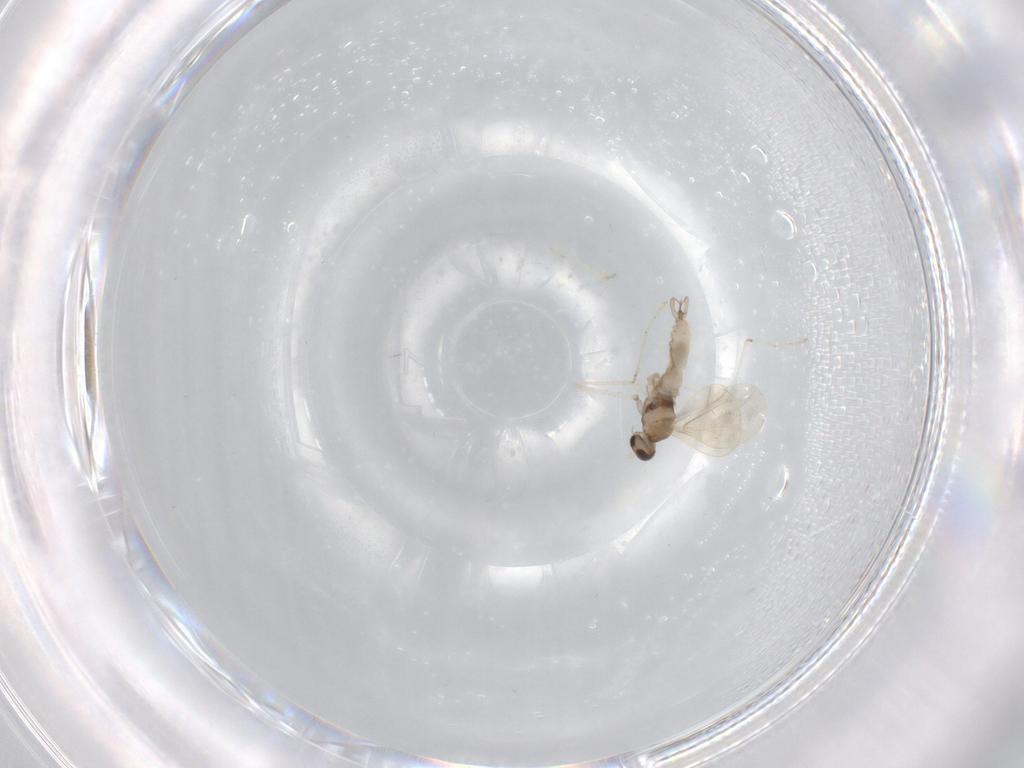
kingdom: Animalia
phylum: Arthropoda
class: Insecta
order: Diptera
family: Cecidomyiidae
